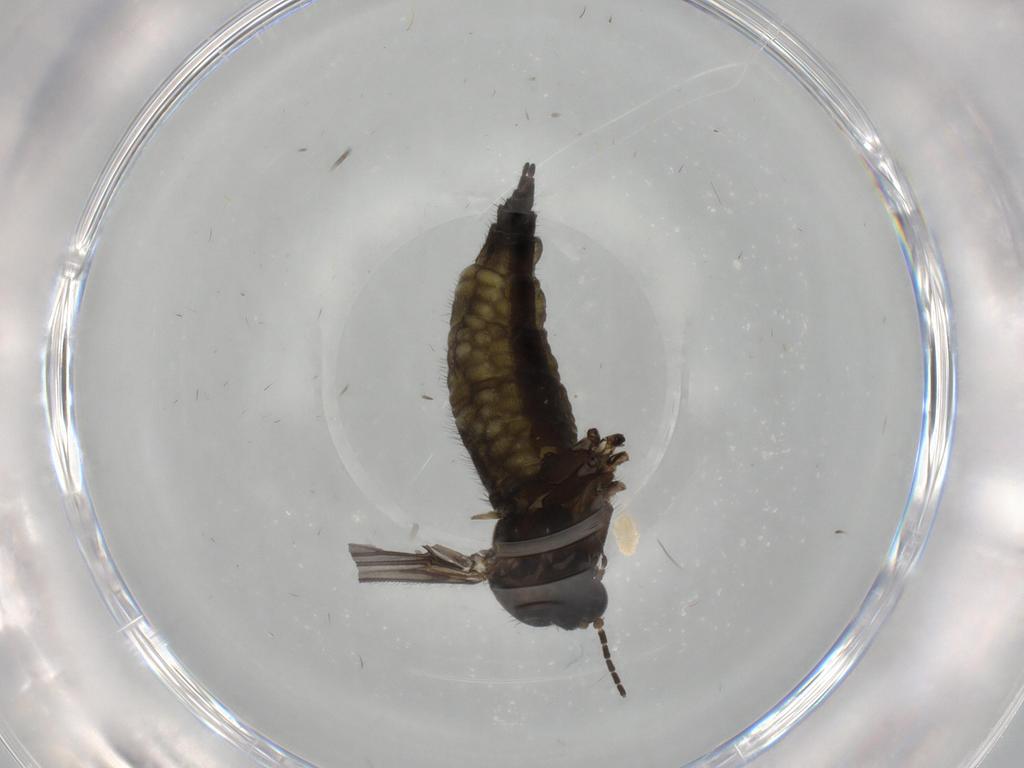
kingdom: Animalia
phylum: Arthropoda
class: Insecta
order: Diptera
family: Sciaridae
